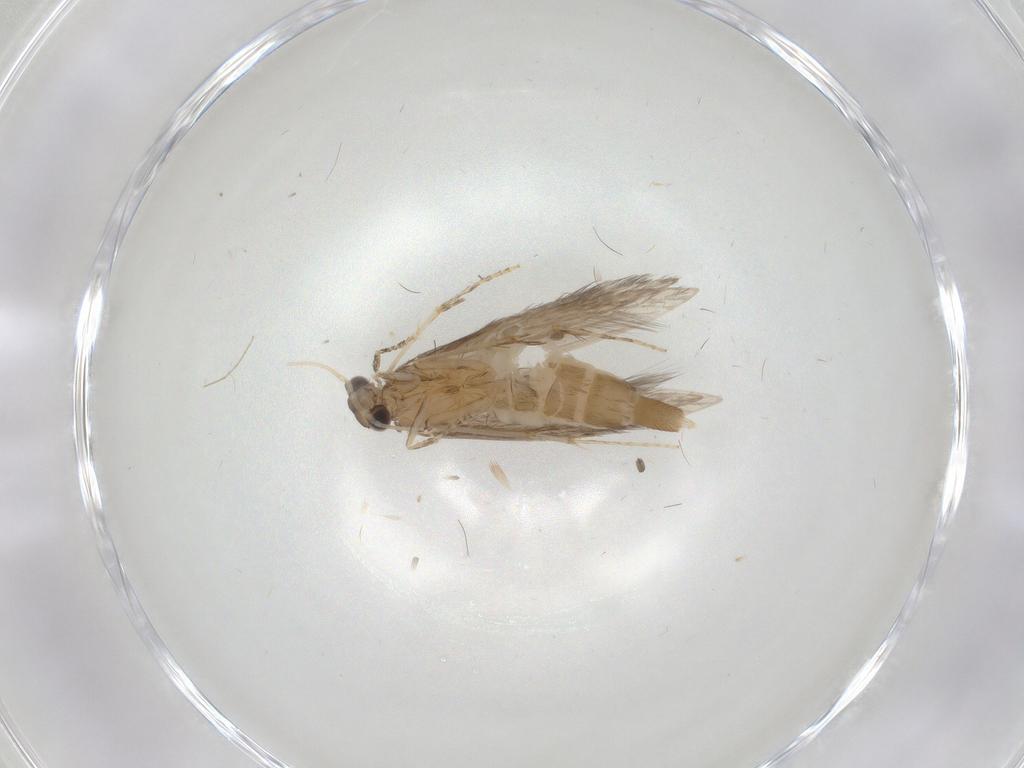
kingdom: Animalia
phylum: Arthropoda
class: Insecta
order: Trichoptera
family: Hydroptilidae
